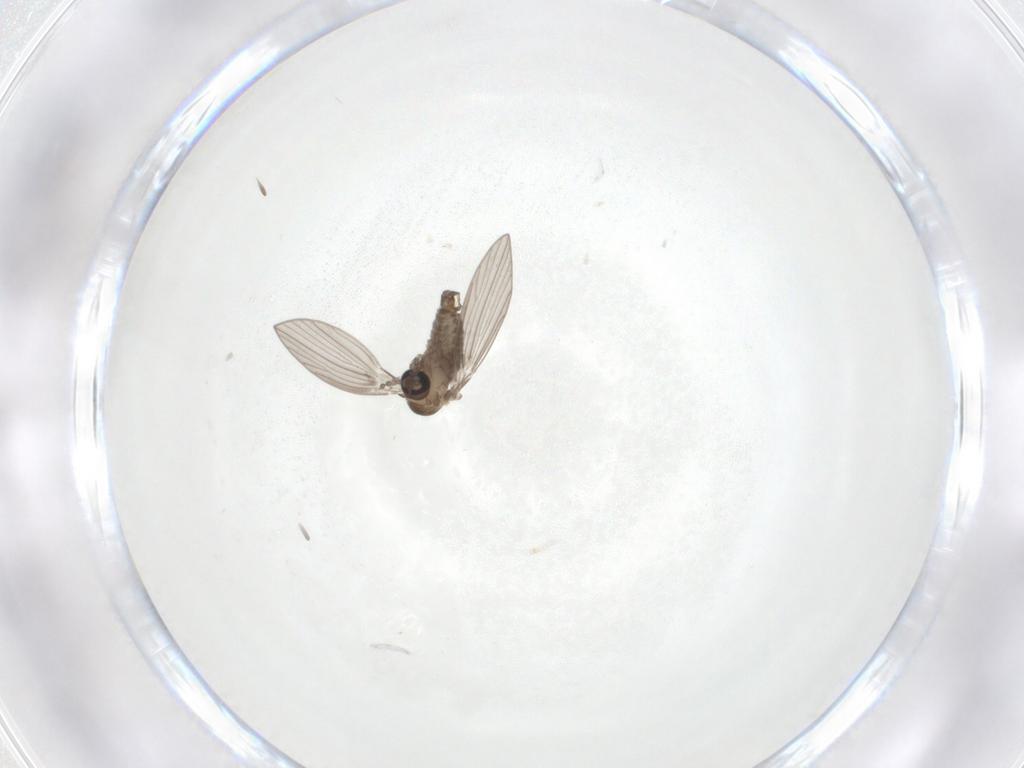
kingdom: Animalia
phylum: Arthropoda
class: Insecta
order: Diptera
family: Psychodidae
